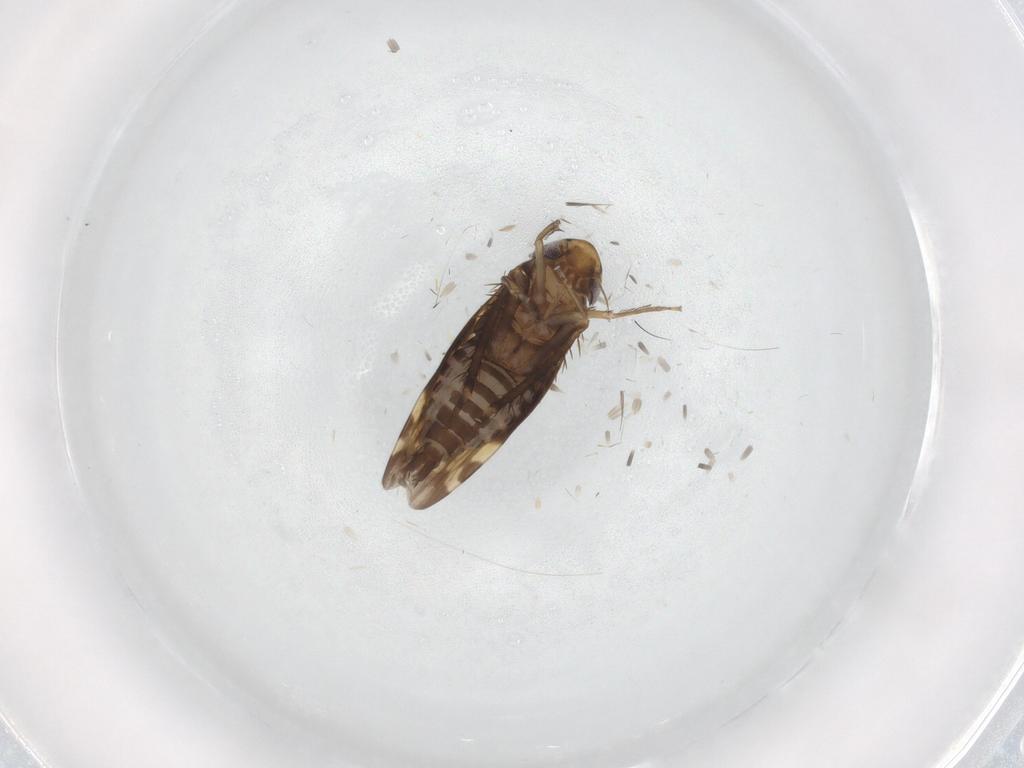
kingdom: Animalia
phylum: Arthropoda
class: Insecta
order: Hemiptera
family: Cicadellidae
